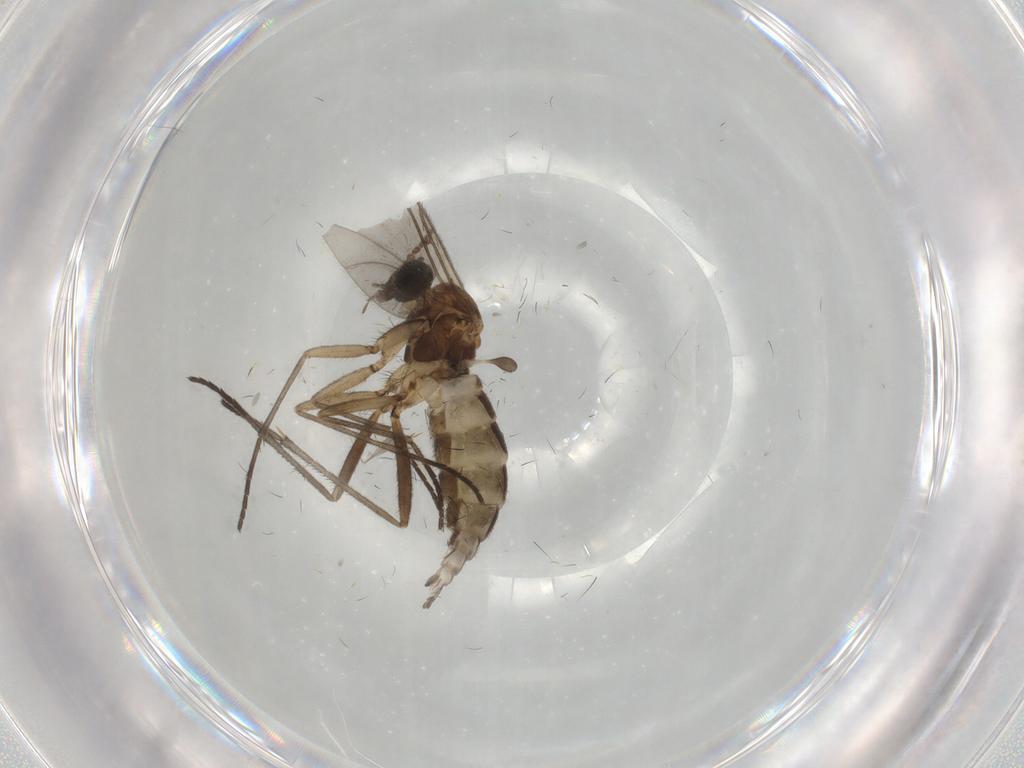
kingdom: Animalia
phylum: Arthropoda
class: Insecta
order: Diptera
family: Sciaridae
